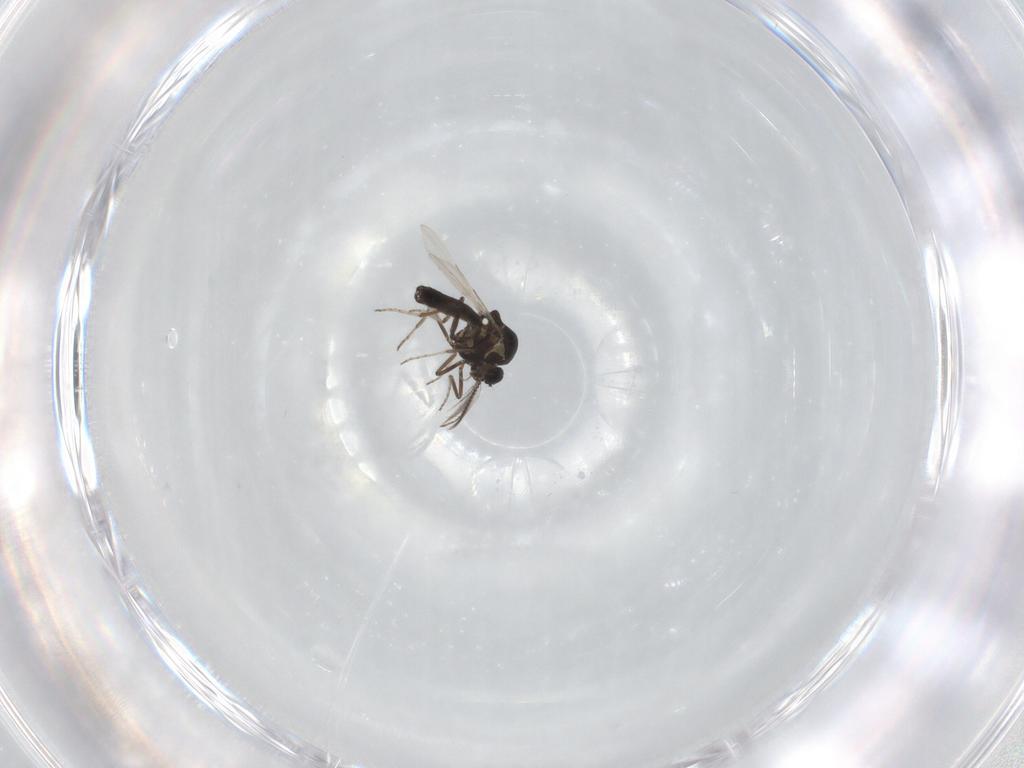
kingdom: Animalia
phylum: Arthropoda
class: Insecta
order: Diptera
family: Ceratopogonidae
